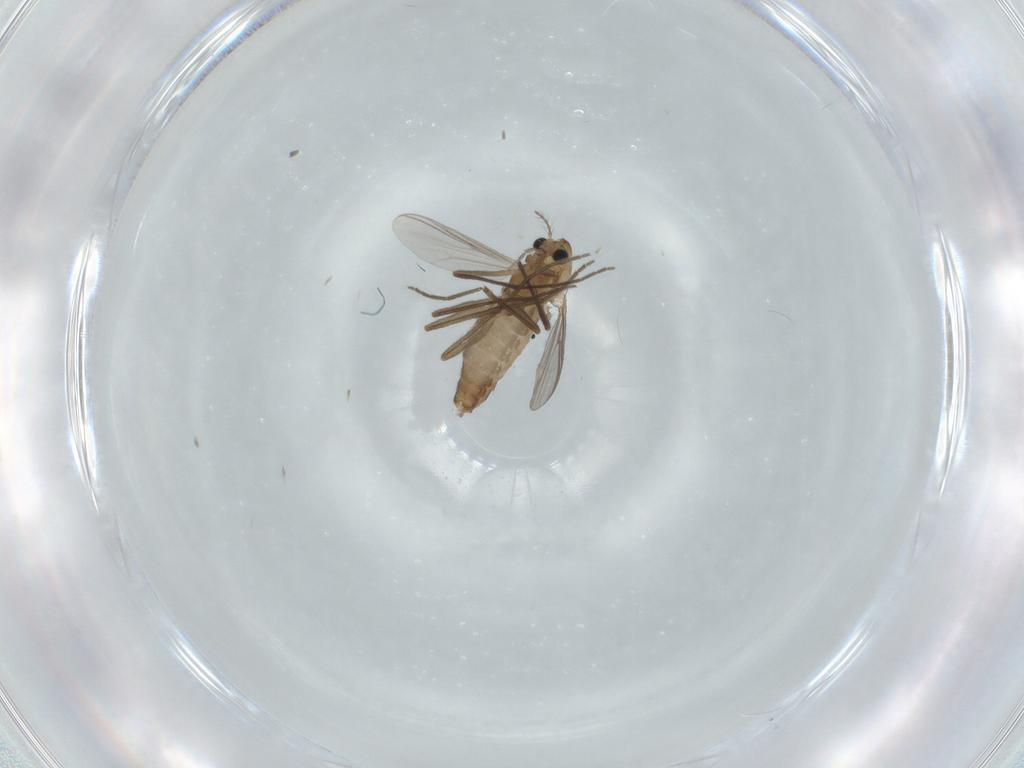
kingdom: Animalia
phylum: Arthropoda
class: Insecta
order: Diptera
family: Chironomidae
